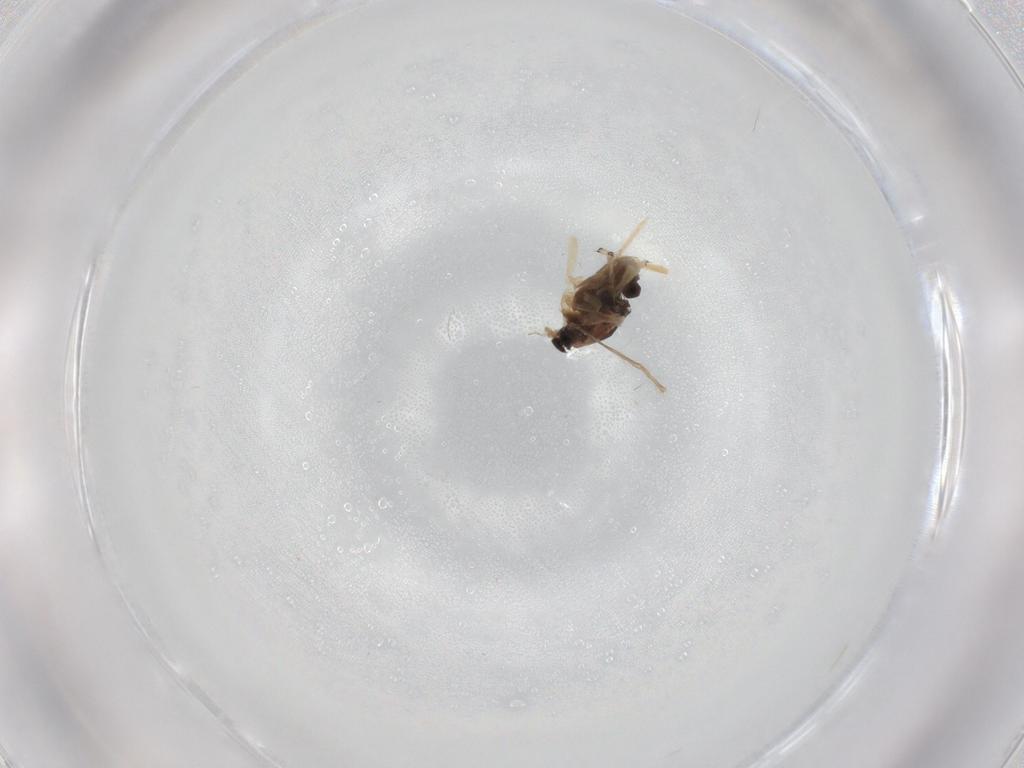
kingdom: Animalia
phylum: Arthropoda
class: Insecta
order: Diptera
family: Chironomidae
